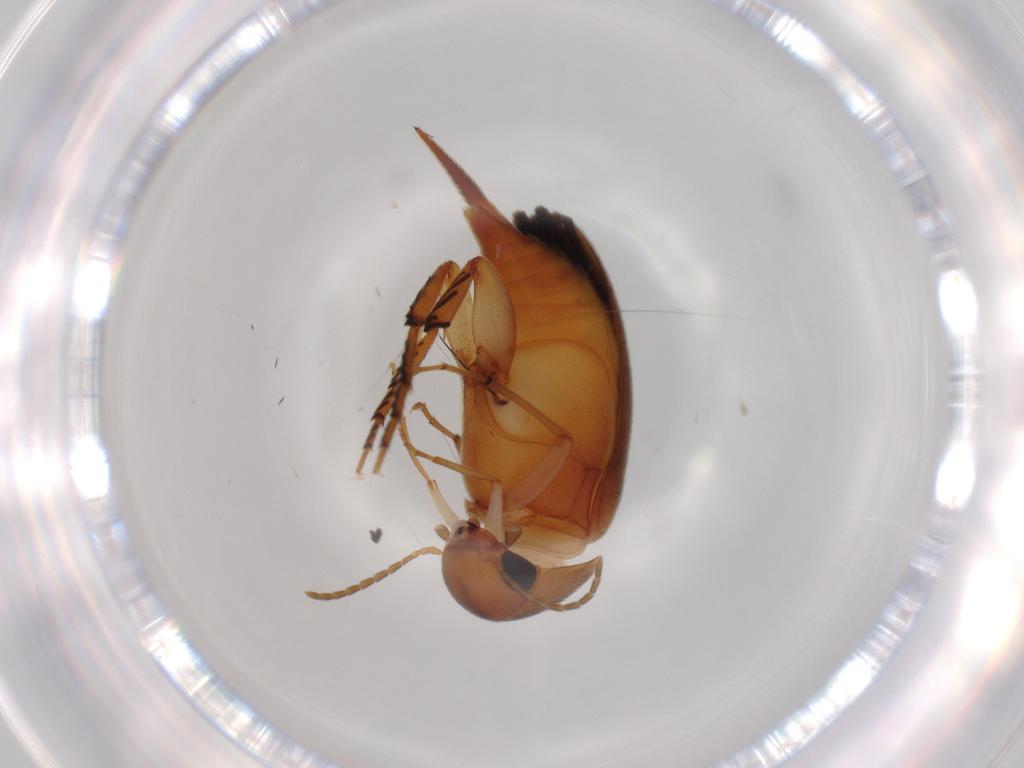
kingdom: Animalia
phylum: Arthropoda
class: Insecta
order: Coleoptera
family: Mordellidae
